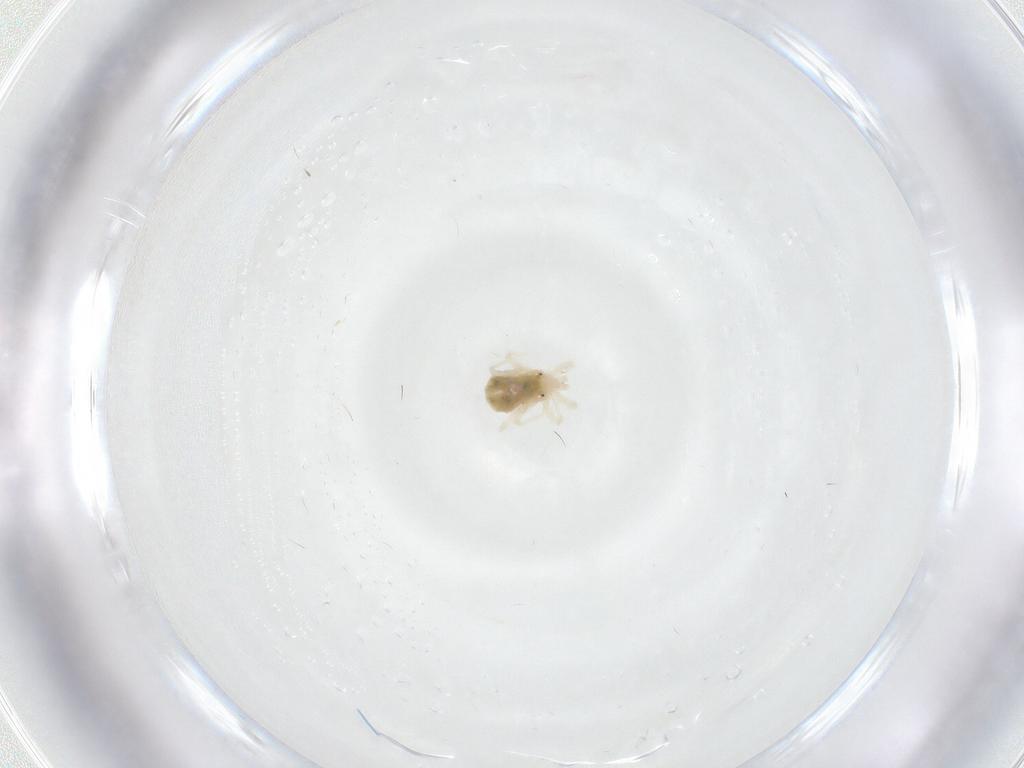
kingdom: Animalia
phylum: Arthropoda
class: Arachnida
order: Trombidiformes
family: Anystidae
